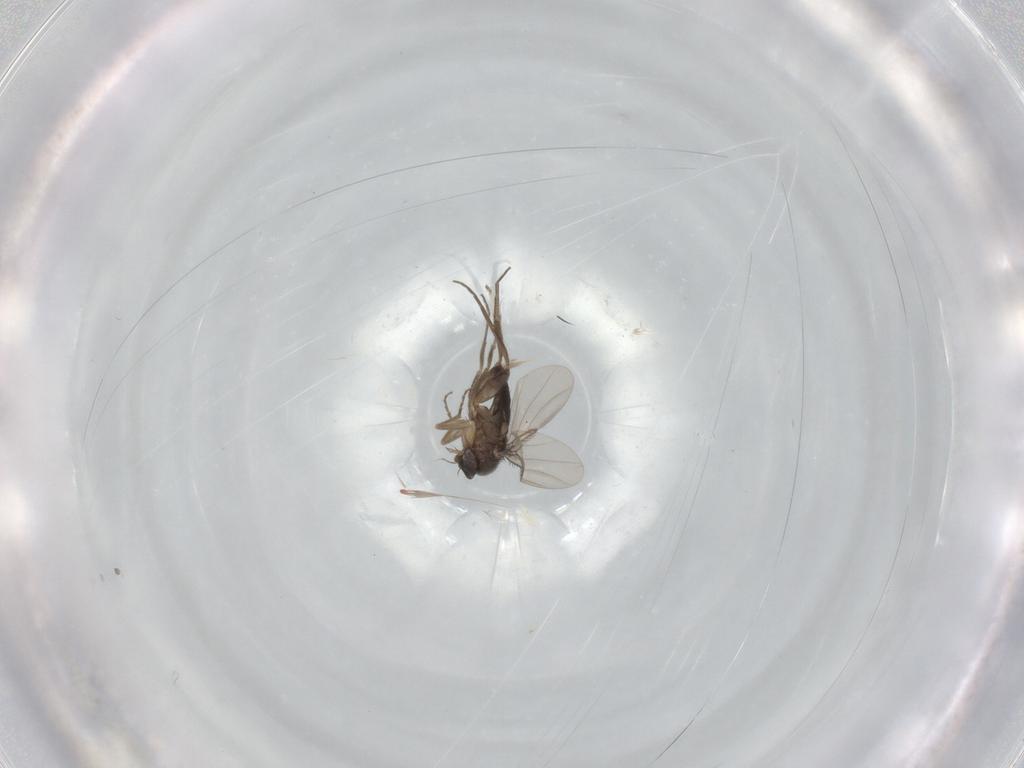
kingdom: Animalia
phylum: Arthropoda
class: Insecta
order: Diptera
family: Phoridae
